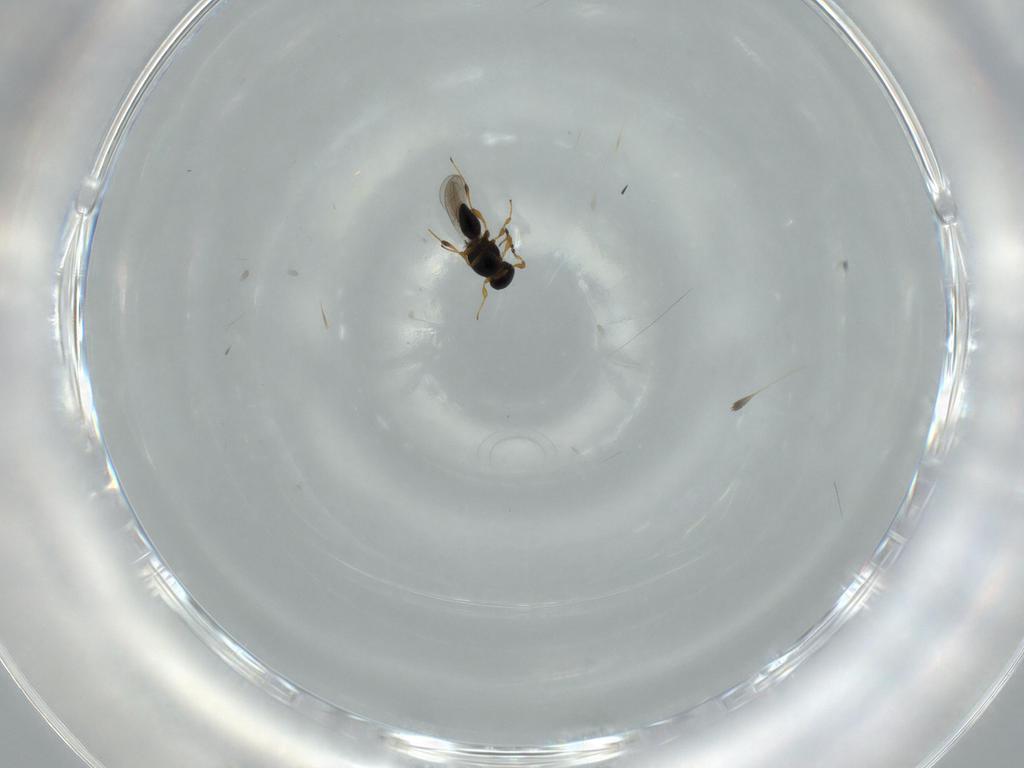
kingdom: Animalia
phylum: Arthropoda
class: Insecta
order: Hymenoptera
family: Platygastridae
